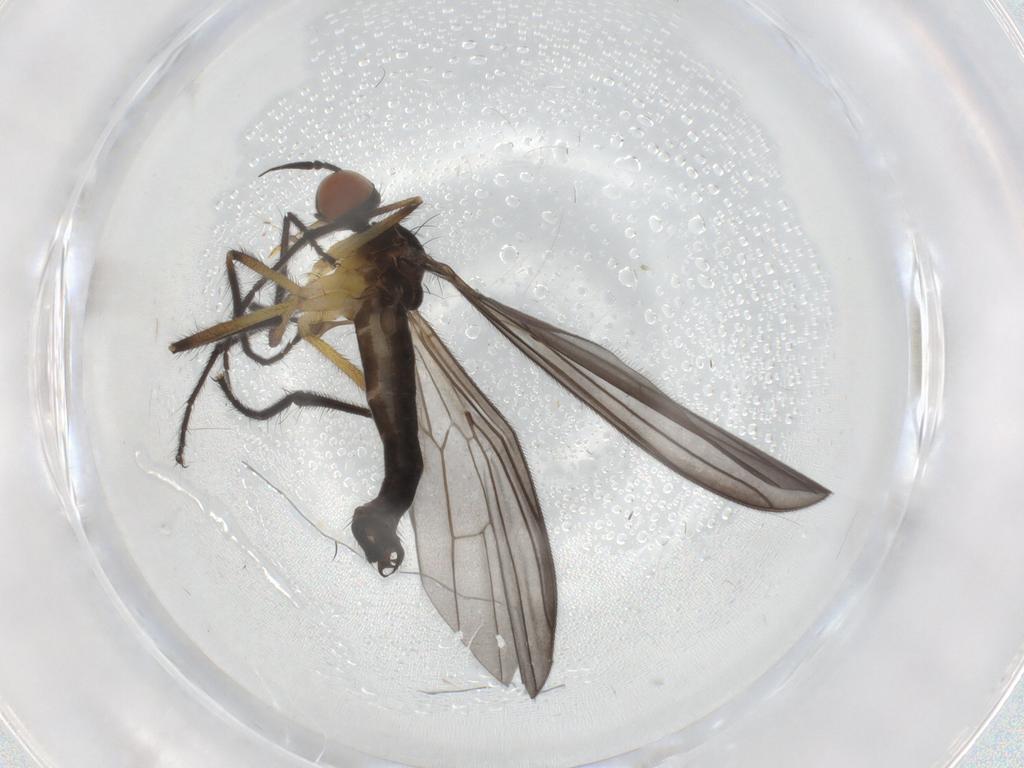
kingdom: Animalia
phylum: Arthropoda
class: Insecta
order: Diptera
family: Empididae
